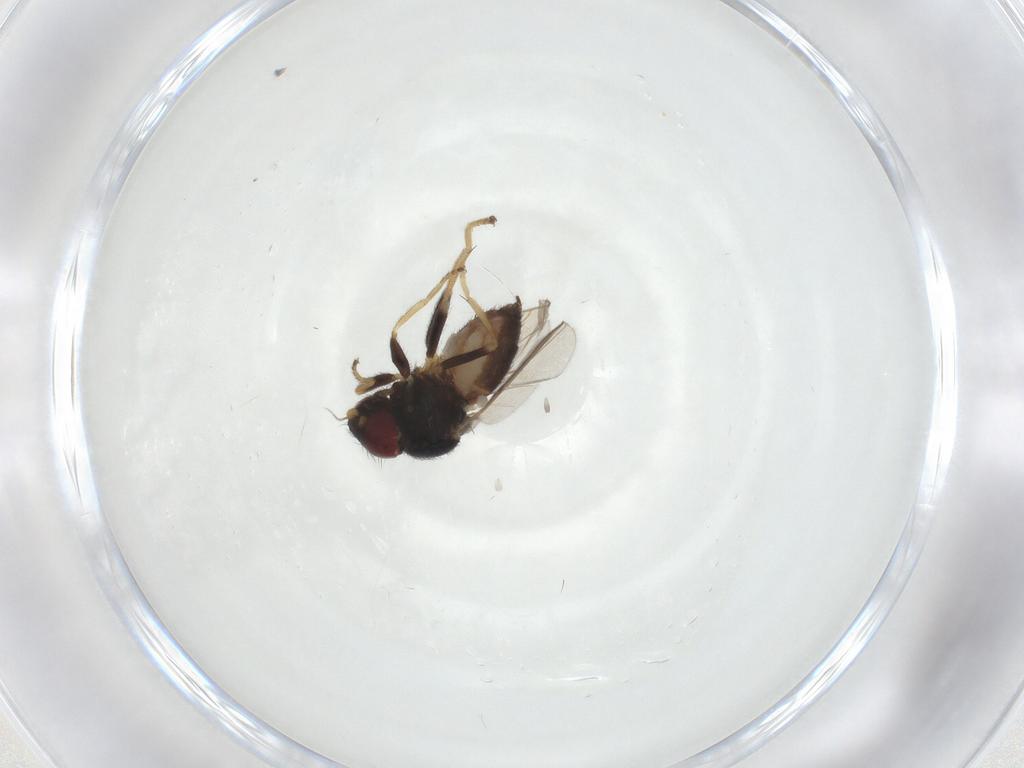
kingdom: Animalia
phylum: Arthropoda
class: Insecta
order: Diptera
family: Chloropidae
